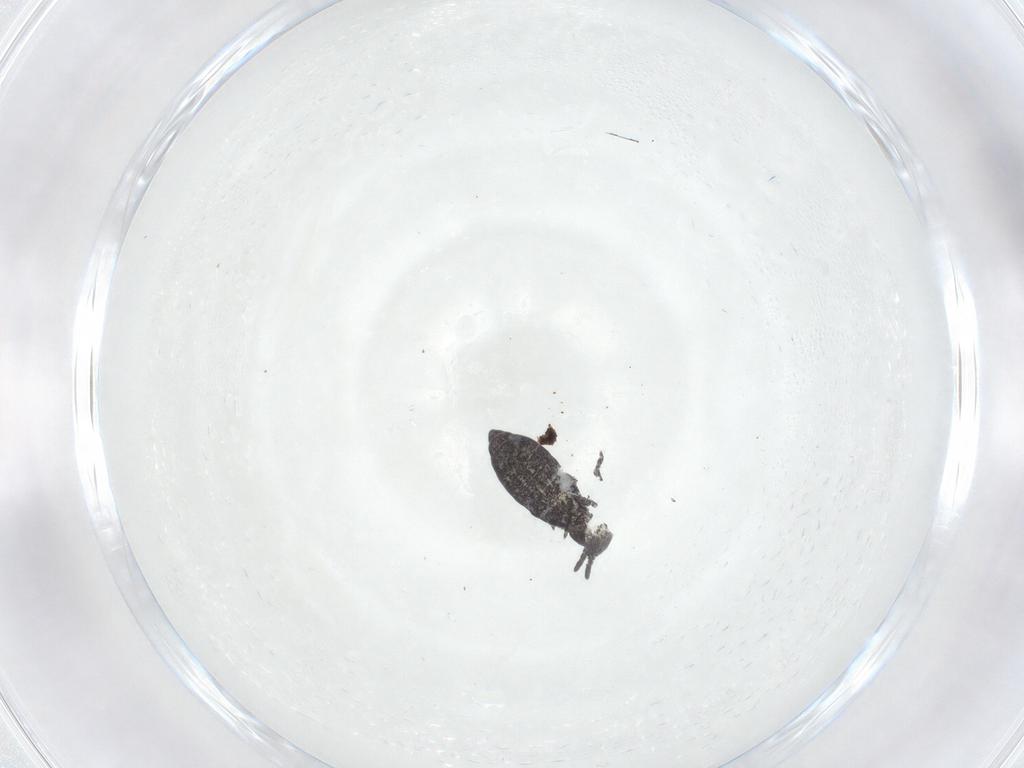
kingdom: Animalia
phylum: Arthropoda
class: Collembola
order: Poduromorpha
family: Hypogastruridae
